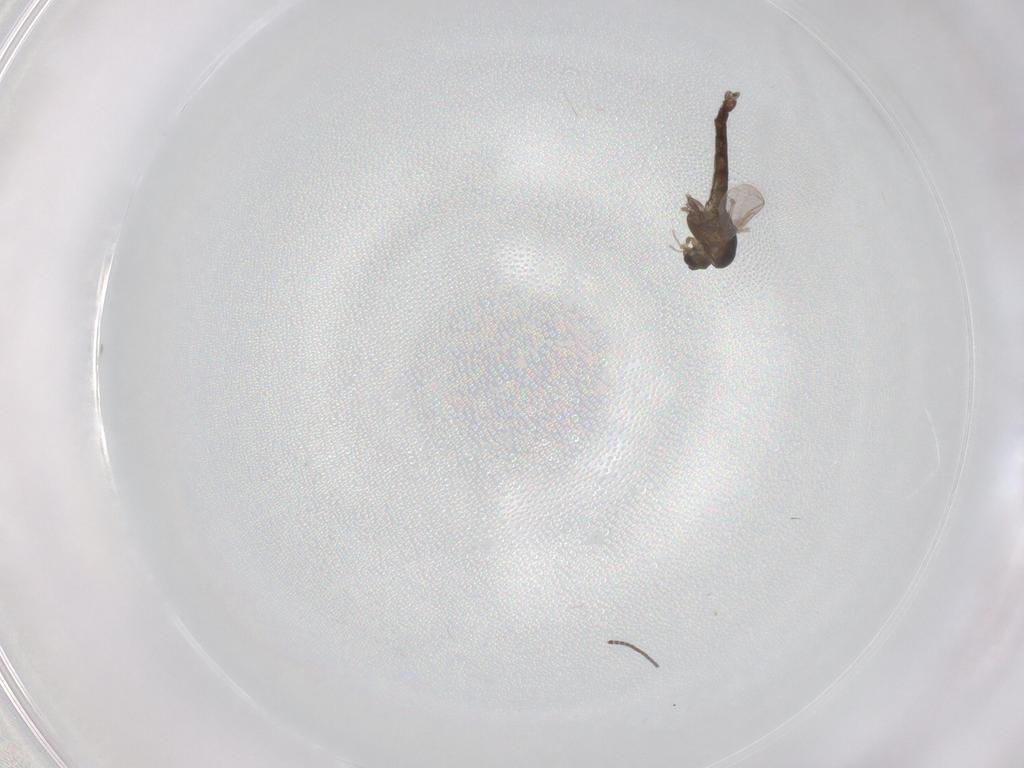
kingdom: Animalia
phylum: Arthropoda
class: Insecta
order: Diptera
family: Chironomidae
